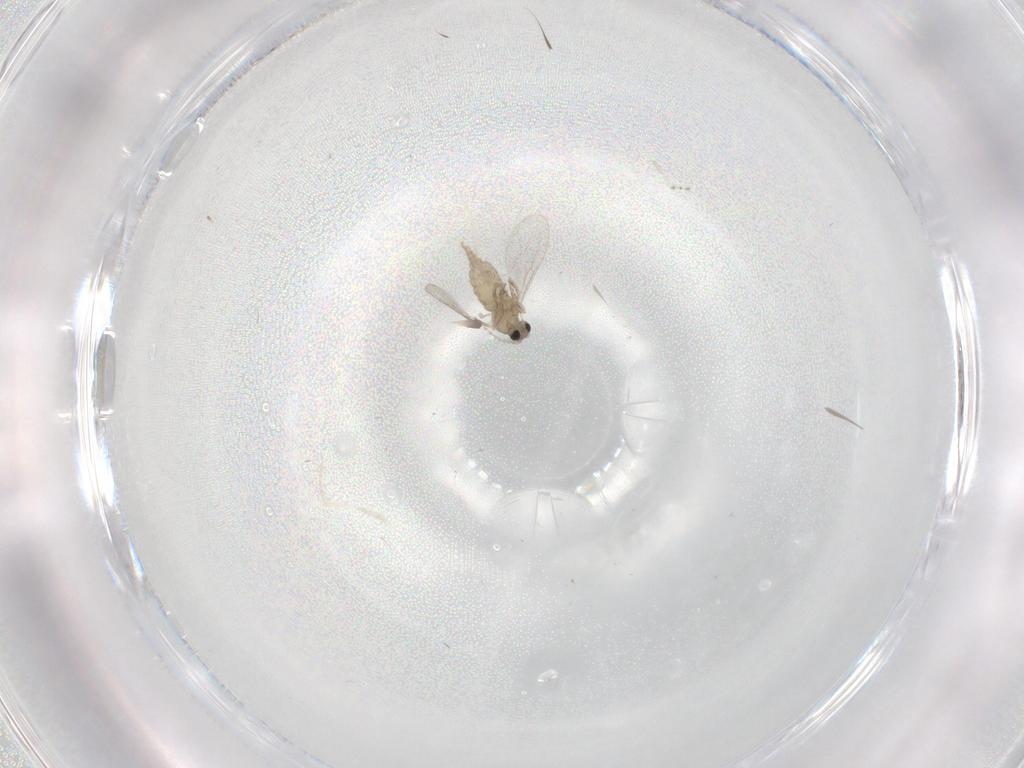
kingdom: Animalia
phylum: Arthropoda
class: Insecta
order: Diptera
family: Cecidomyiidae
